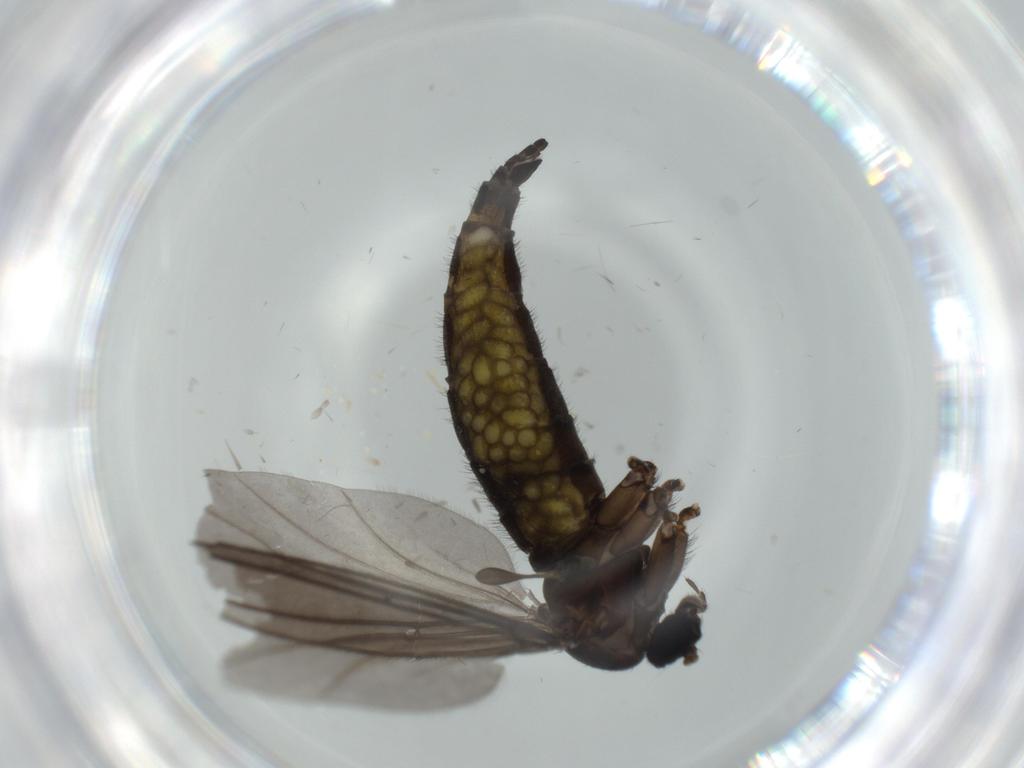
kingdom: Animalia
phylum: Arthropoda
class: Insecta
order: Diptera
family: Sciaridae
